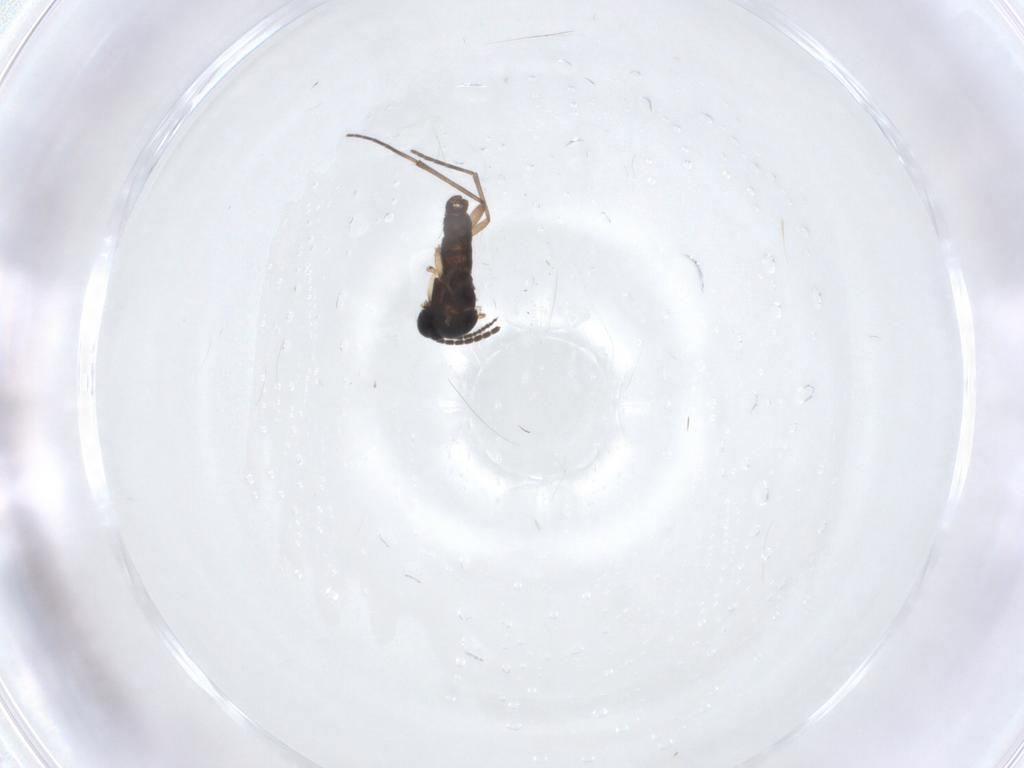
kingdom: Animalia
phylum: Arthropoda
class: Insecta
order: Diptera
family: Sciaridae
